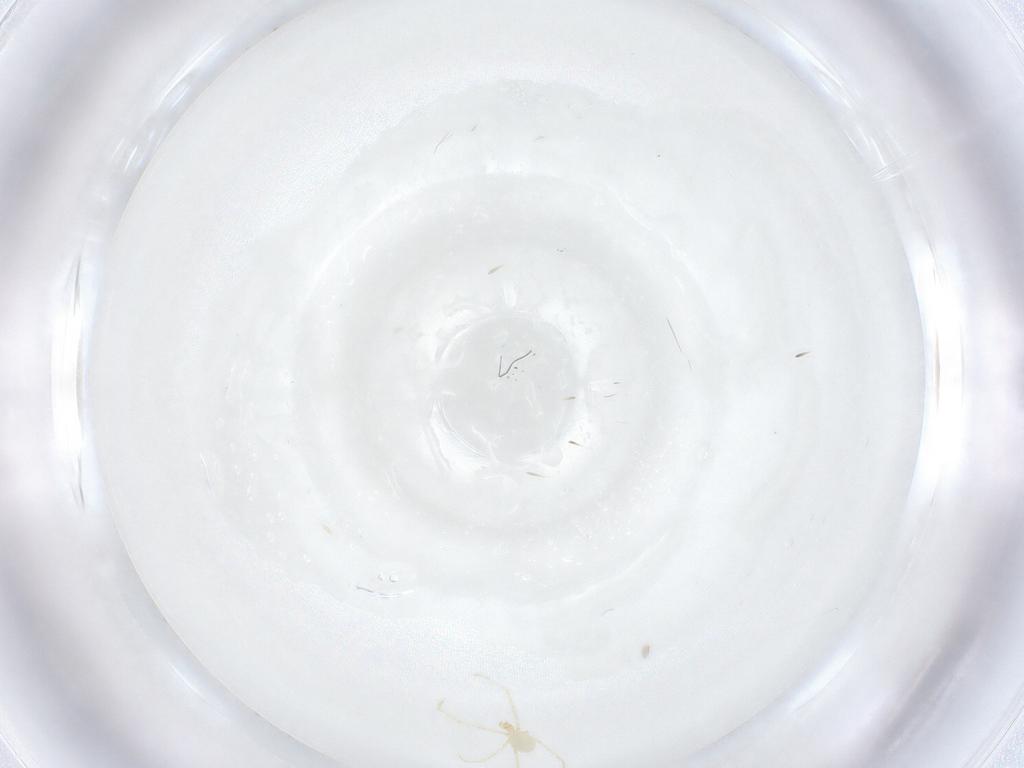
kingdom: Animalia
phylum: Arthropoda
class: Arachnida
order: Trombidiformes
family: Erythraeidae
